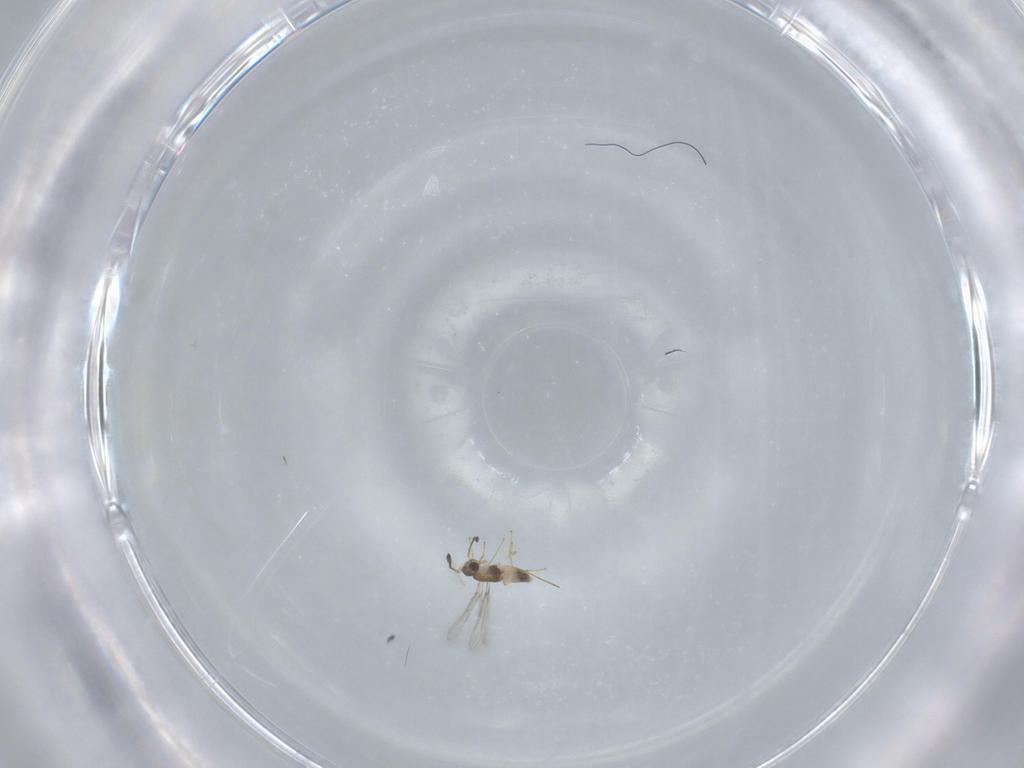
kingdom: Animalia
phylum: Arthropoda
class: Insecta
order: Hymenoptera
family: Mymaridae
